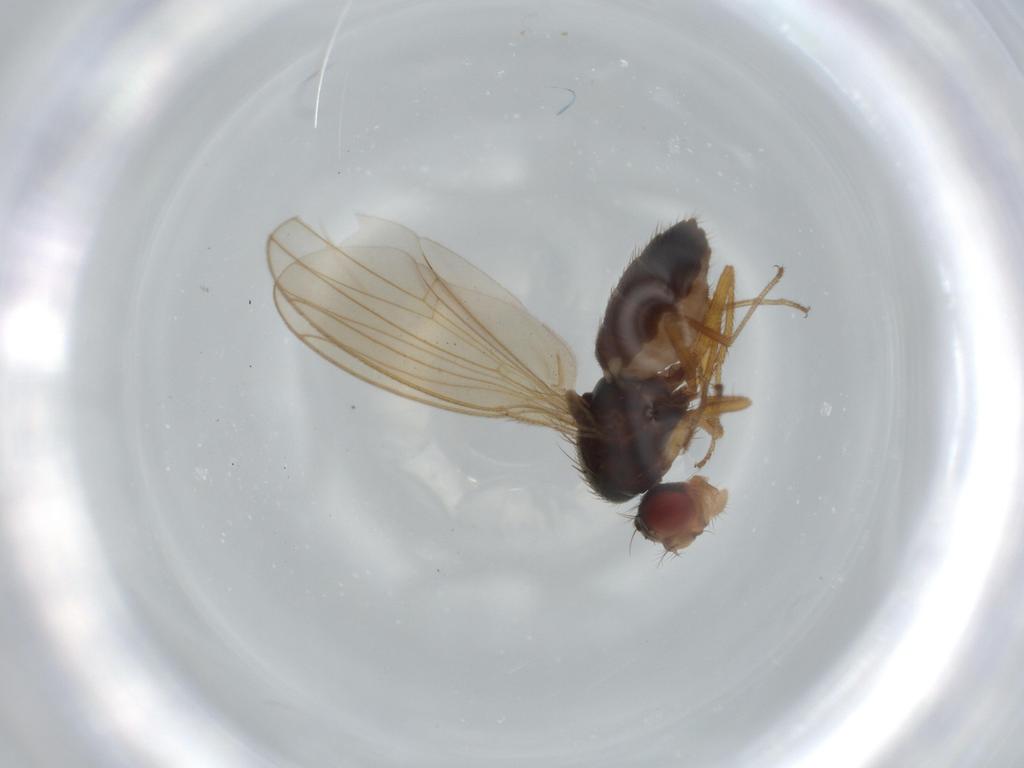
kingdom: Animalia
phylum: Arthropoda
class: Insecta
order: Diptera
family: Drosophilidae
